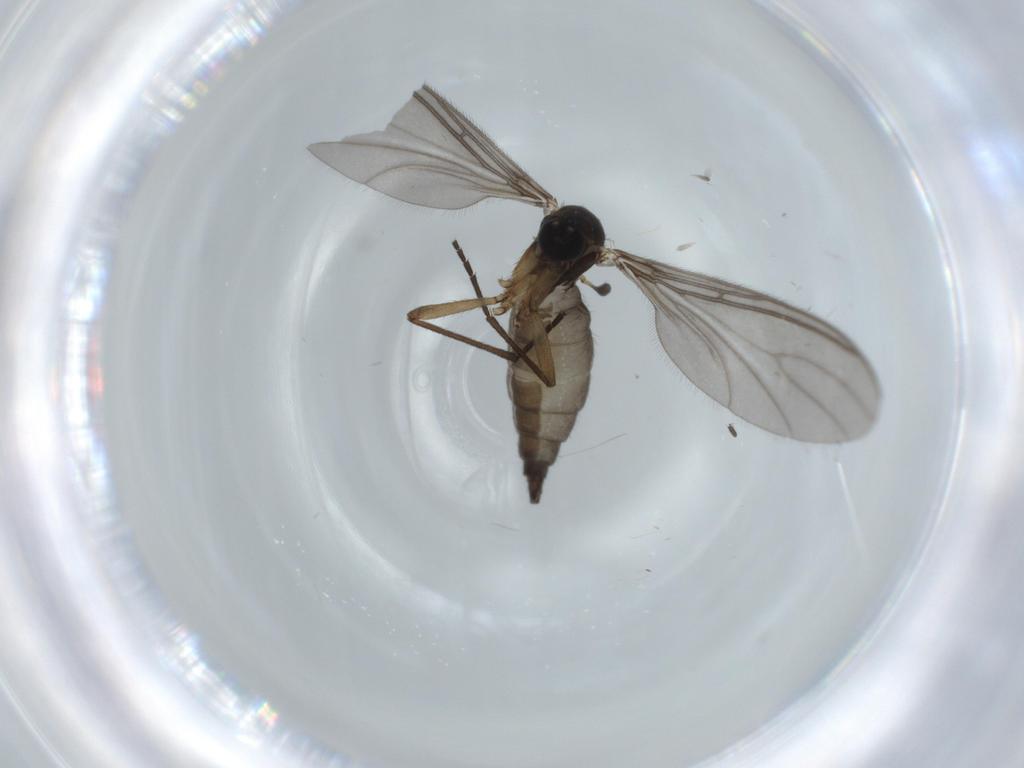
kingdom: Animalia
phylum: Arthropoda
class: Insecta
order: Diptera
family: Sciaridae
